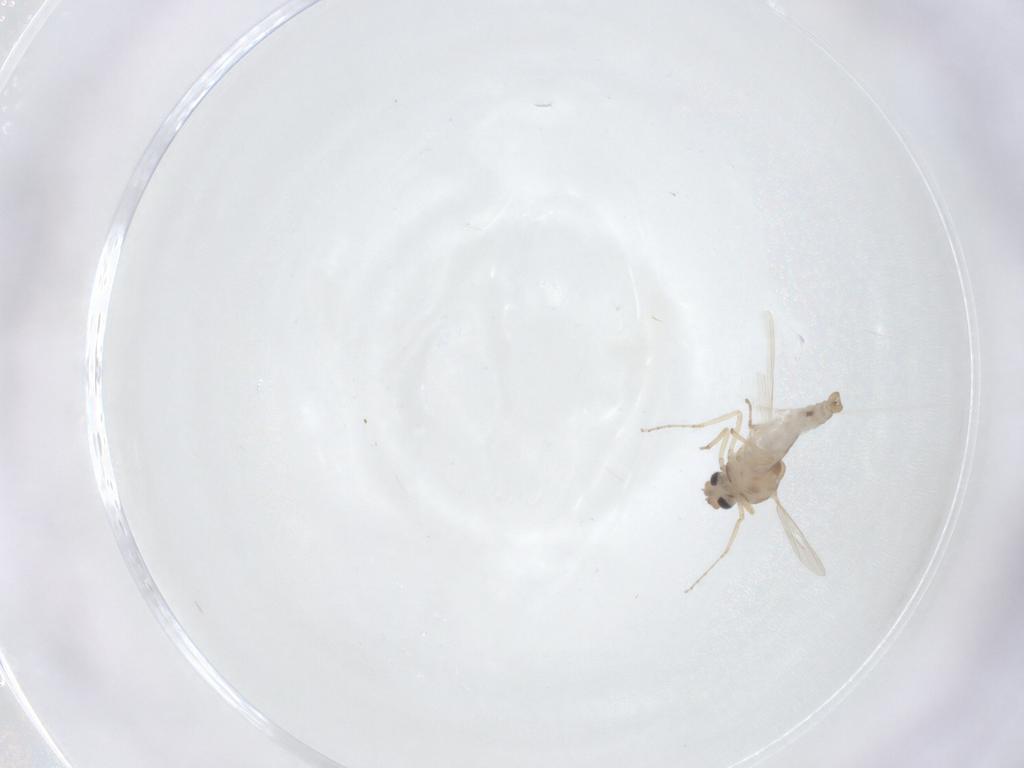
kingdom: Animalia
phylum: Arthropoda
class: Insecta
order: Diptera
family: Ceratopogonidae
